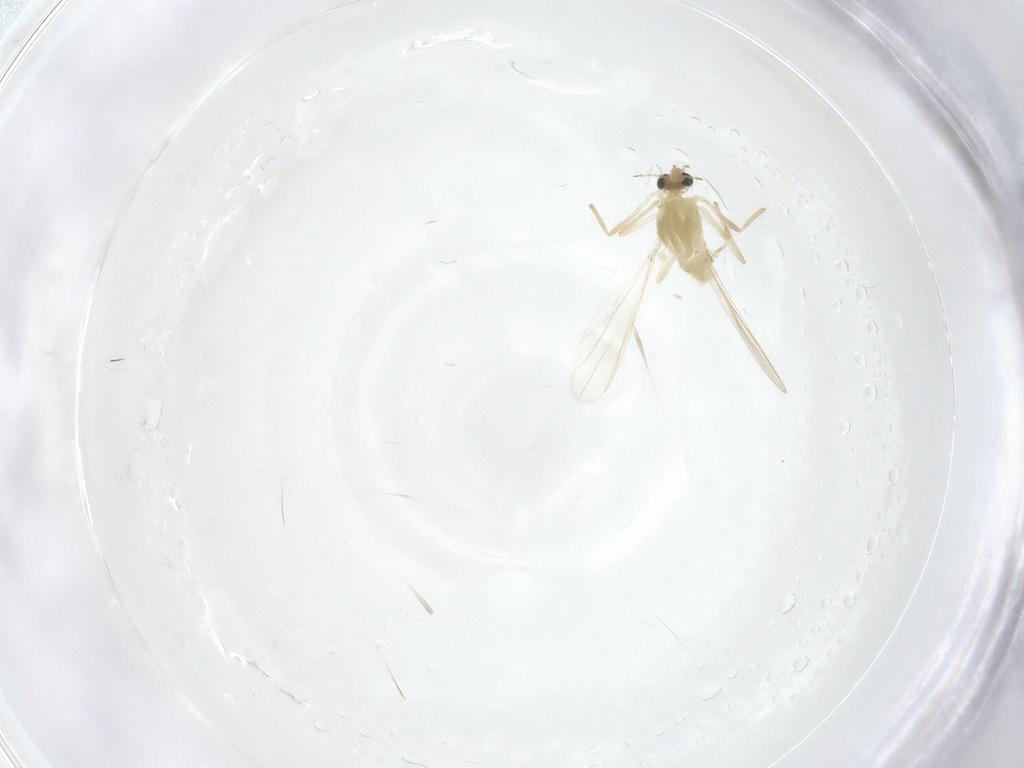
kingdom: Animalia
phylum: Arthropoda
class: Insecta
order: Diptera
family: Chironomidae
